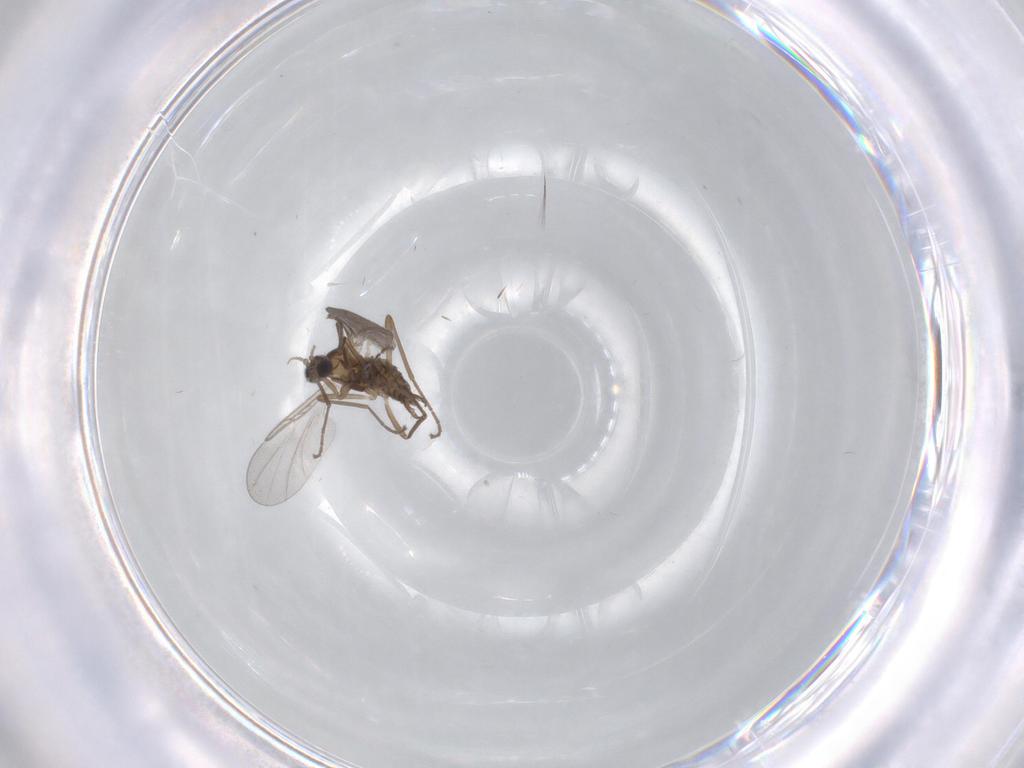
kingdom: Animalia
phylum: Arthropoda
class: Insecta
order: Diptera
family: Cecidomyiidae
